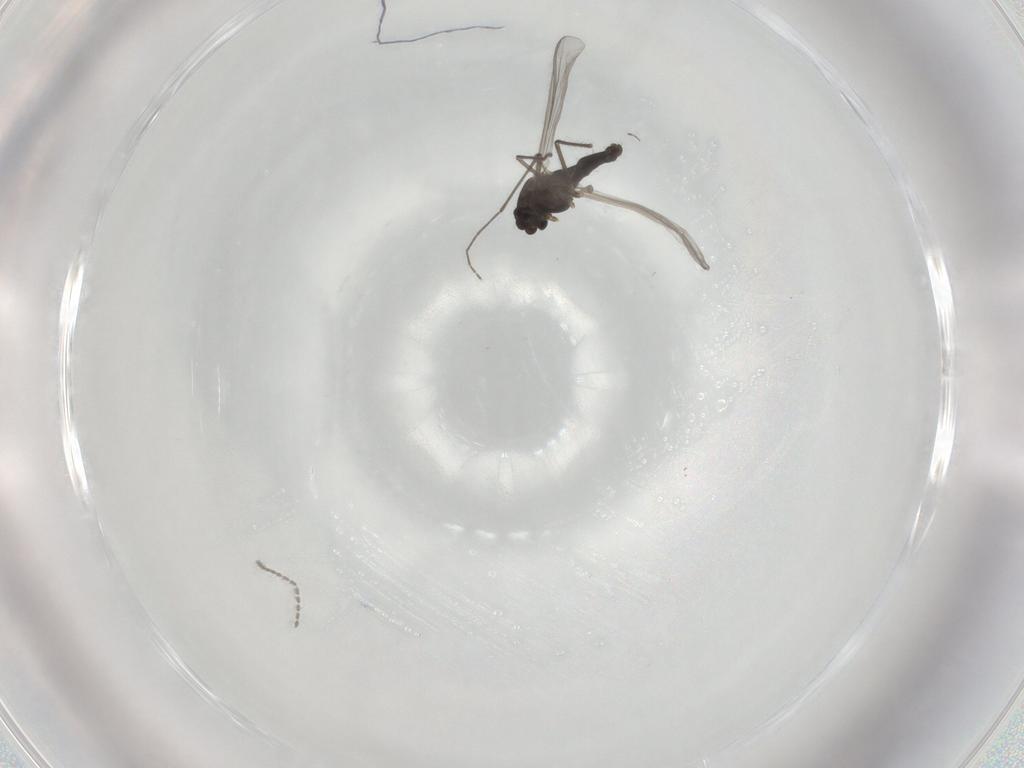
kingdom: Animalia
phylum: Arthropoda
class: Insecta
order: Diptera
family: Chironomidae
